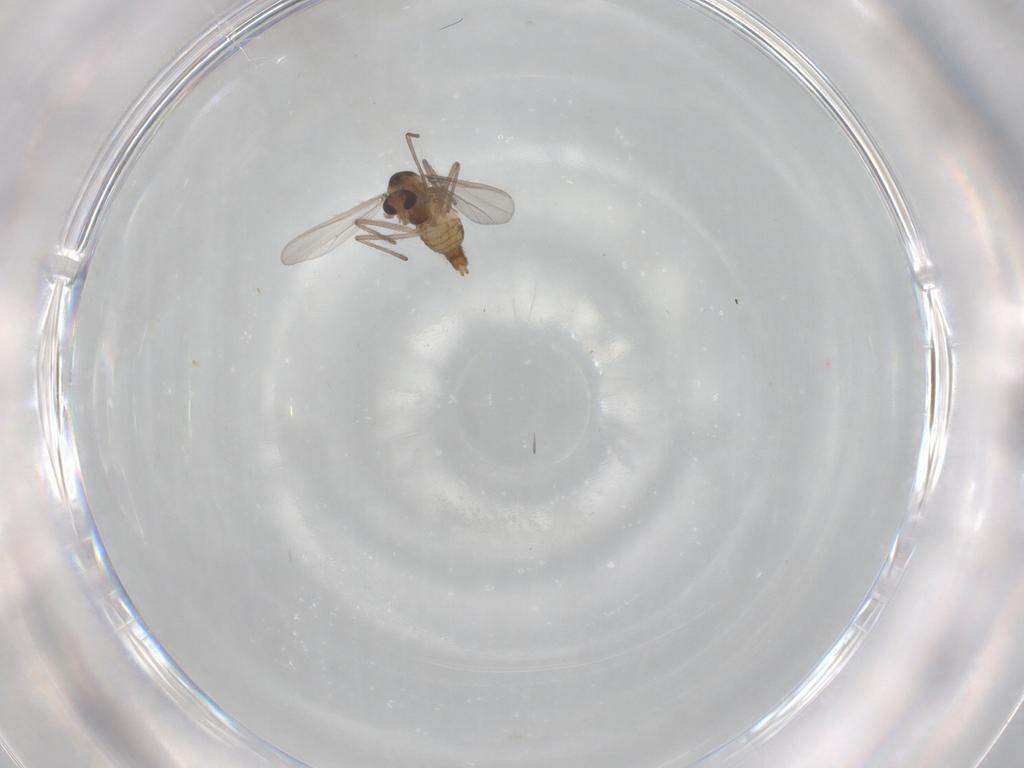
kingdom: Animalia
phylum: Arthropoda
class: Insecta
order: Diptera
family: Chironomidae
